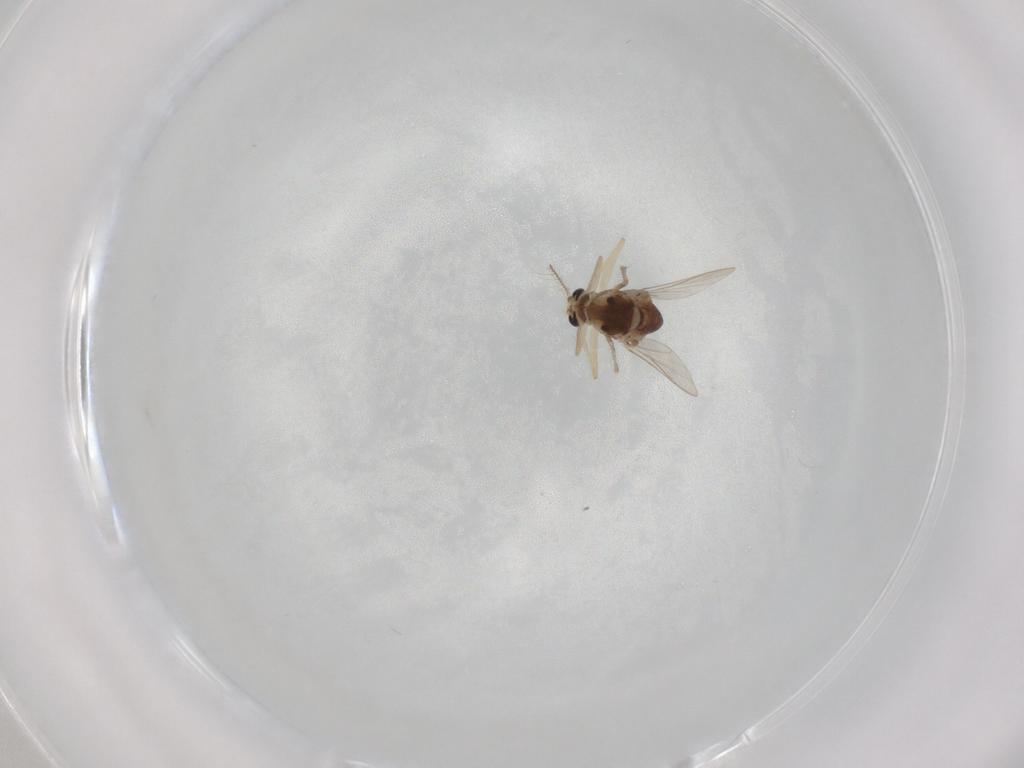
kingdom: Animalia
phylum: Arthropoda
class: Insecta
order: Diptera
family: Chironomidae
